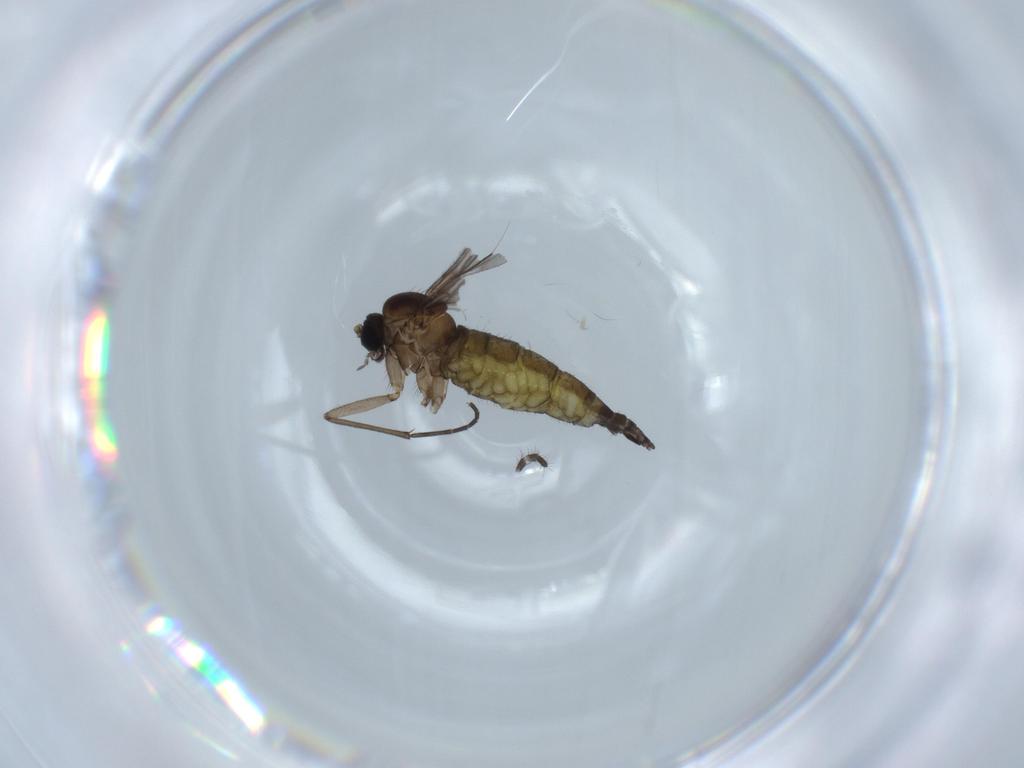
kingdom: Animalia
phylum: Arthropoda
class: Insecta
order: Diptera
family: Sciaridae
